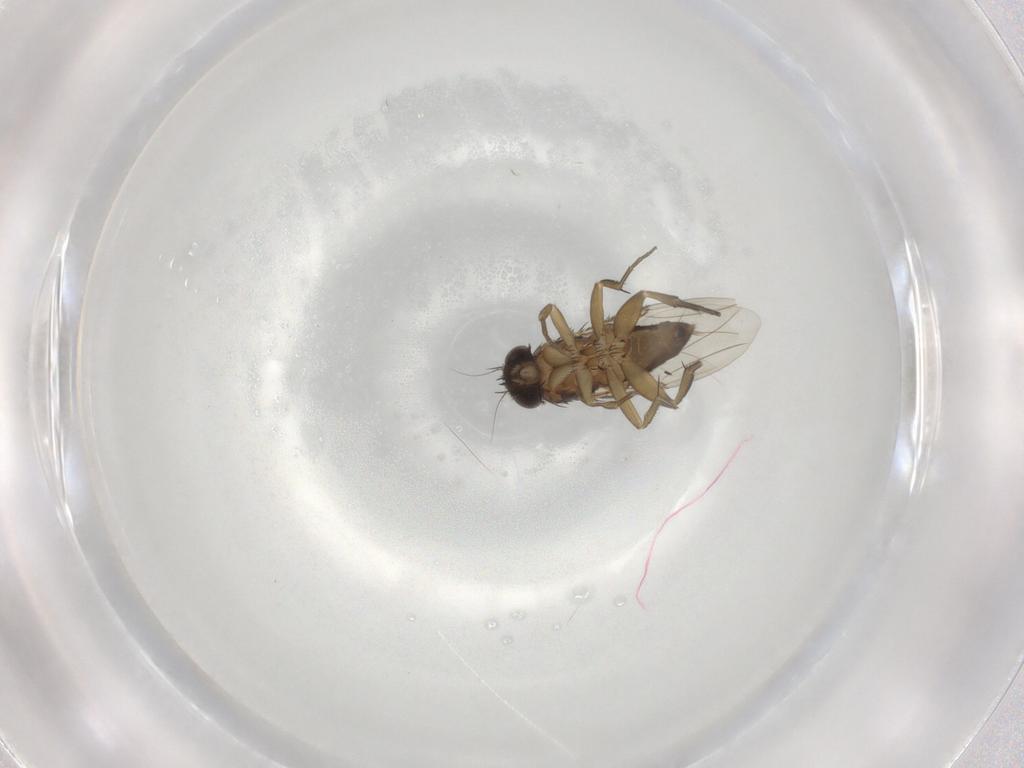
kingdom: Animalia
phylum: Arthropoda
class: Insecta
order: Diptera
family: Phoridae
